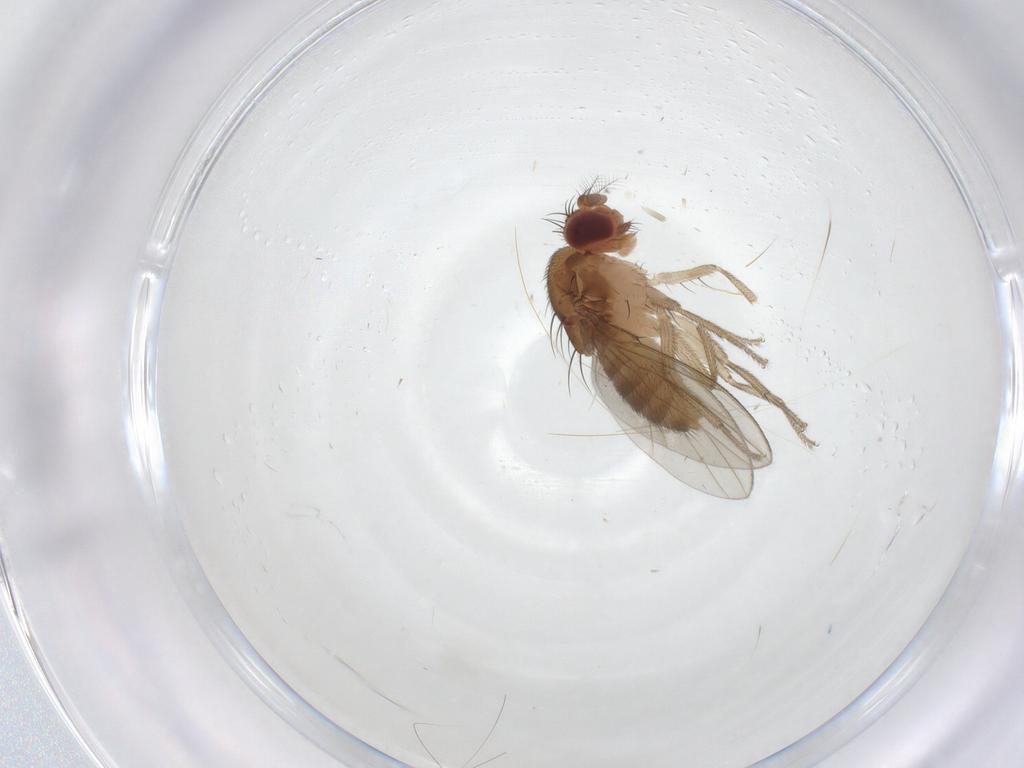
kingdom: Animalia
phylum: Arthropoda
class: Insecta
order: Diptera
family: Drosophilidae
